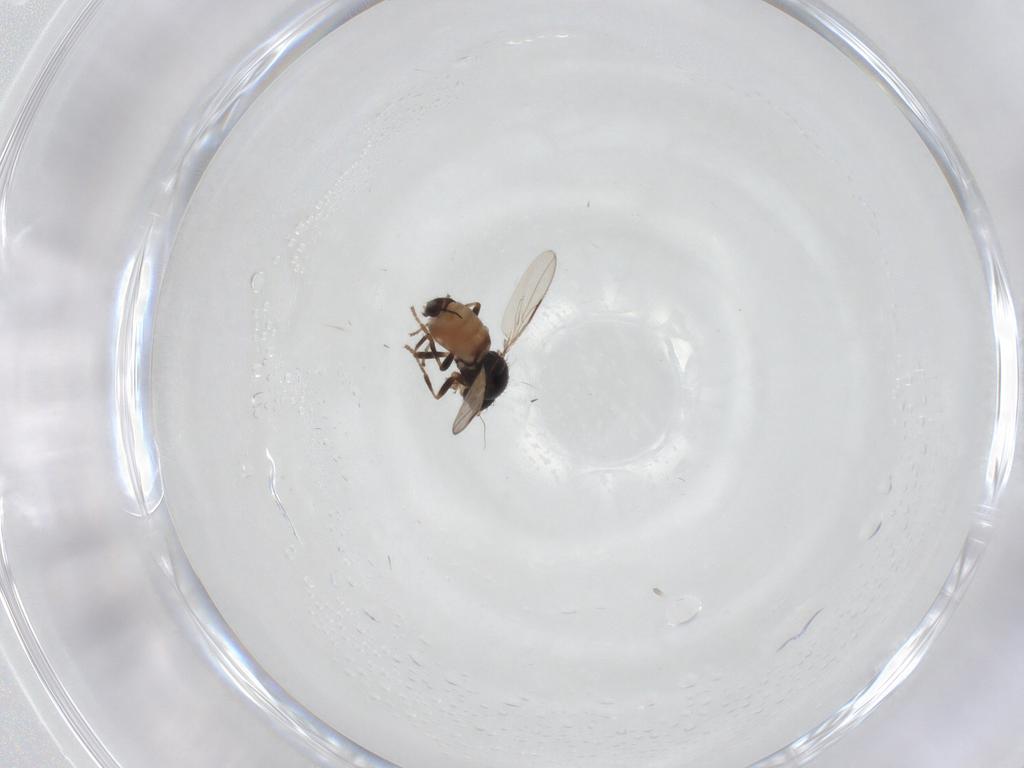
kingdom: Animalia
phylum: Arthropoda
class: Insecta
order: Diptera
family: Sphaeroceridae
